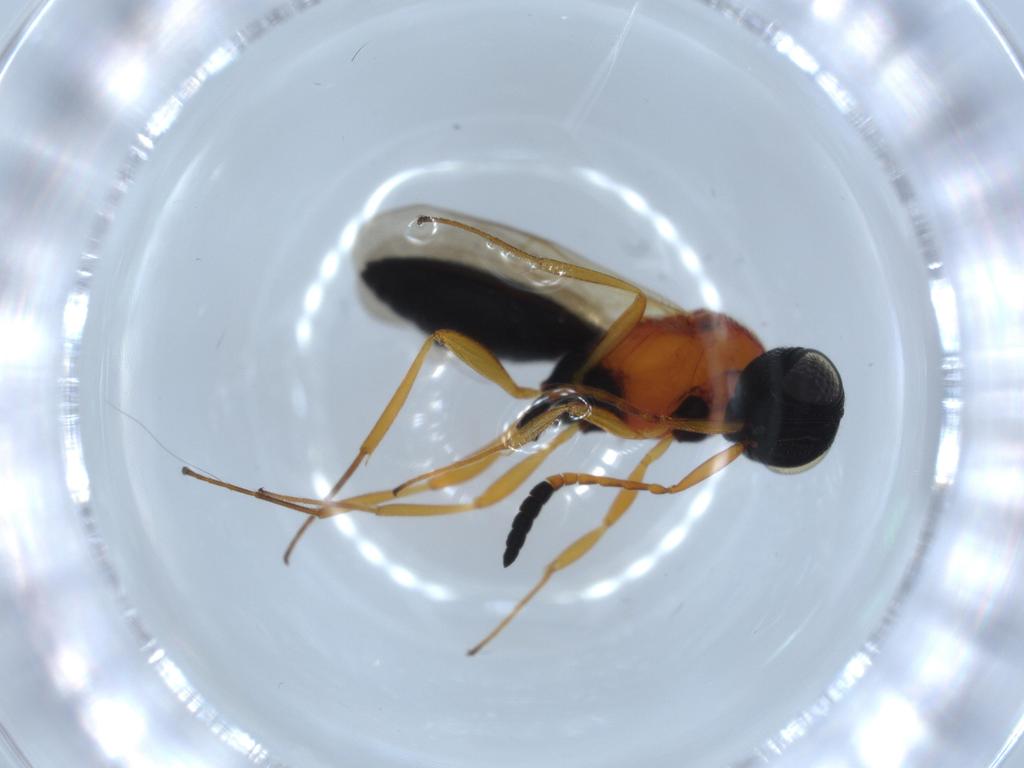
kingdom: Animalia
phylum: Arthropoda
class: Insecta
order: Hymenoptera
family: Scelionidae
